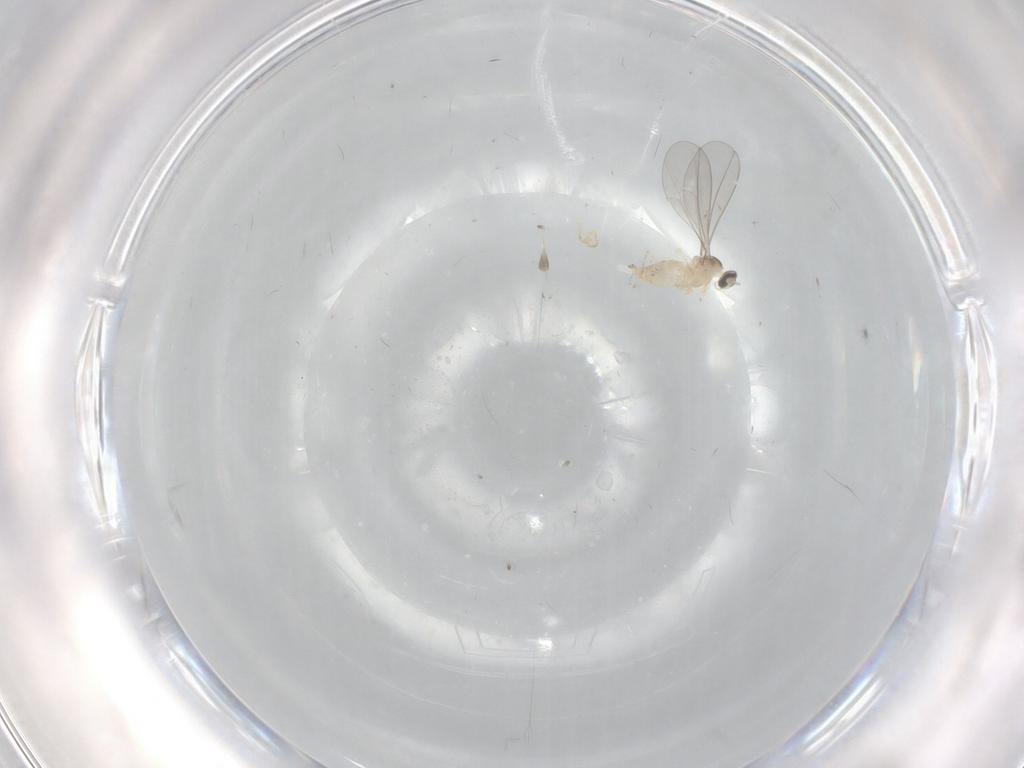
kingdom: Animalia
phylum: Arthropoda
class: Insecta
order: Diptera
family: Cecidomyiidae
